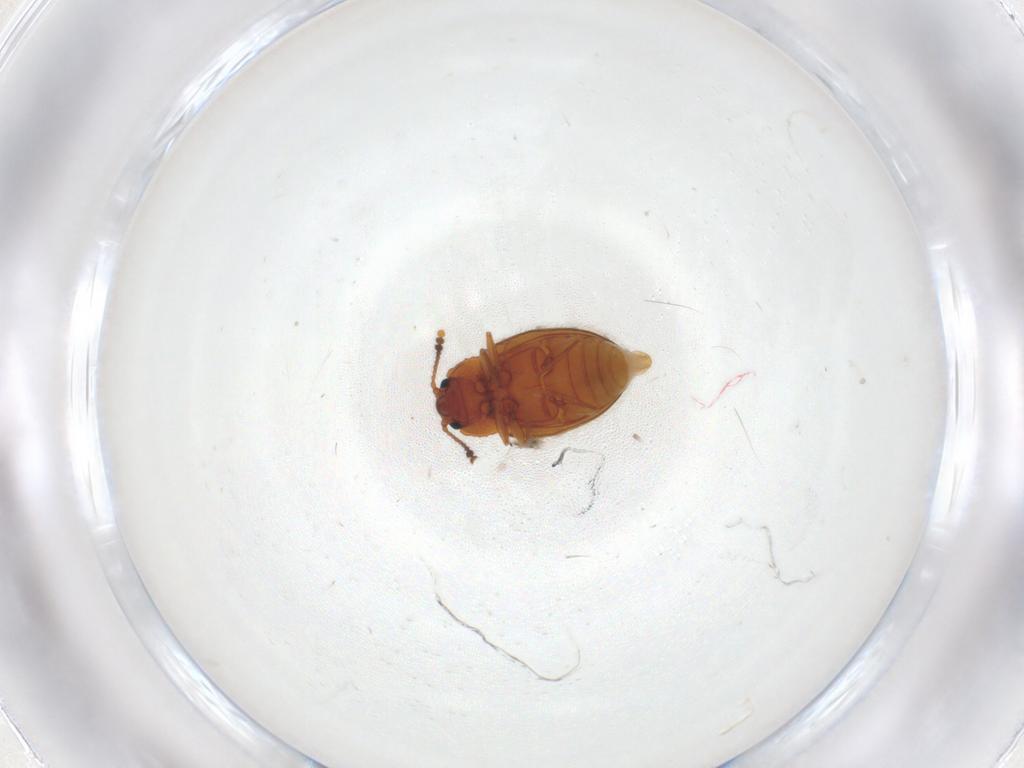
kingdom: Animalia
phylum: Arthropoda
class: Insecta
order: Coleoptera
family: Erotylidae
